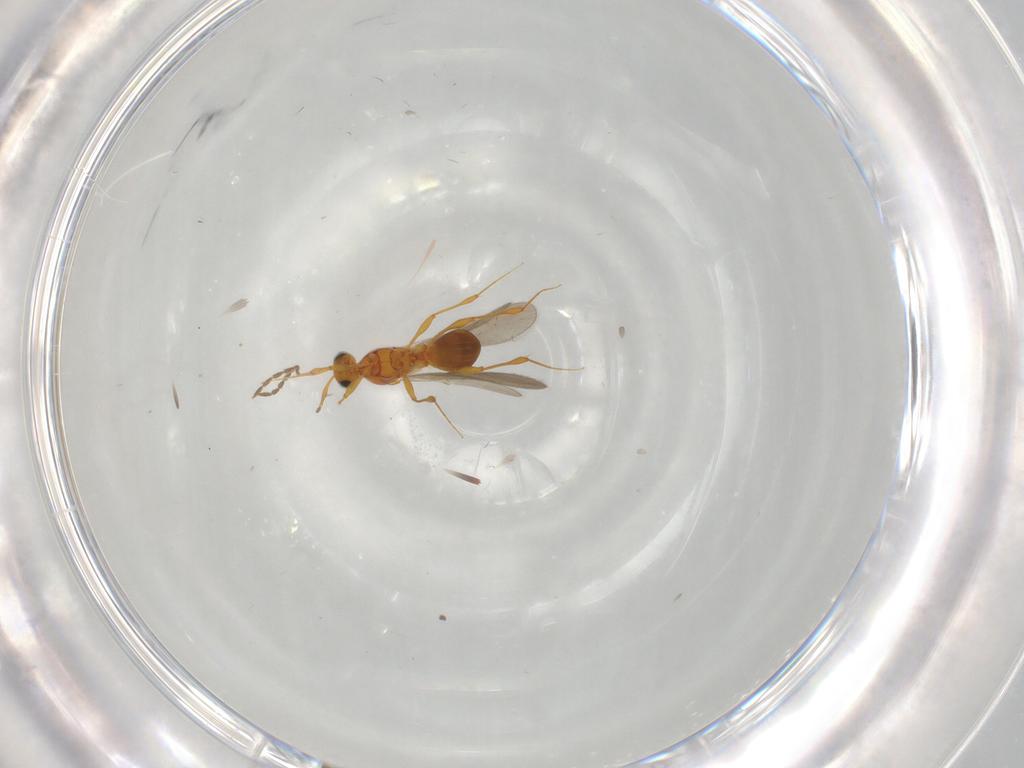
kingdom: Animalia
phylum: Arthropoda
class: Insecta
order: Hymenoptera
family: Platygastridae
